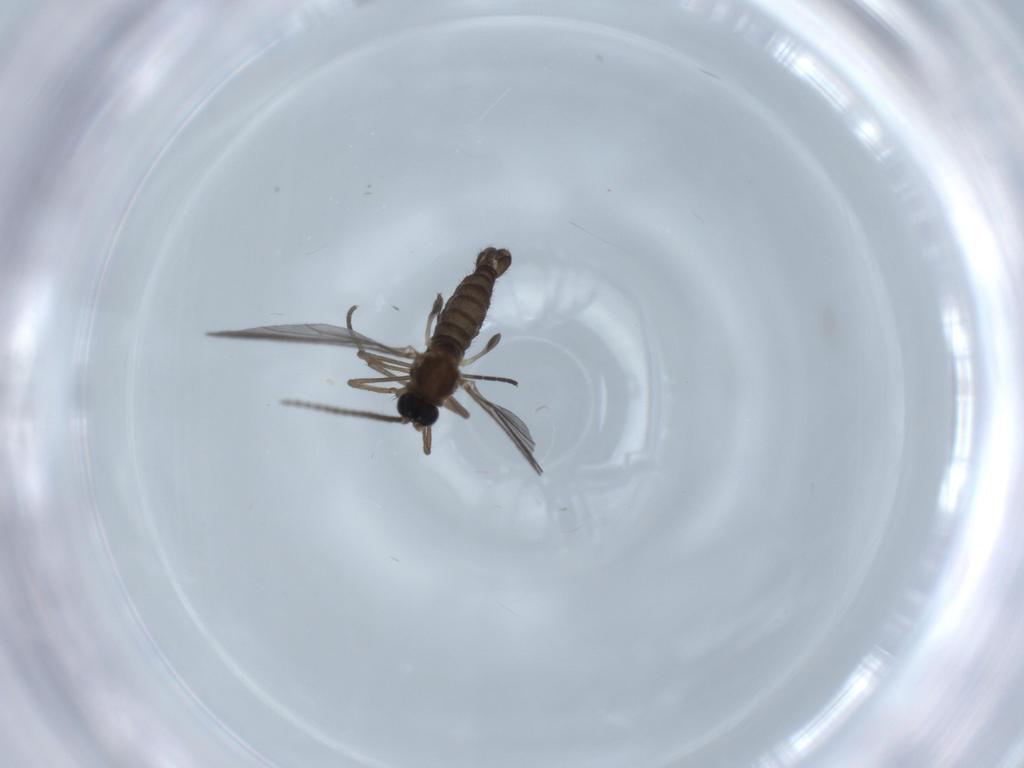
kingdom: Animalia
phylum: Arthropoda
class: Insecta
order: Diptera
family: Sciaridae
